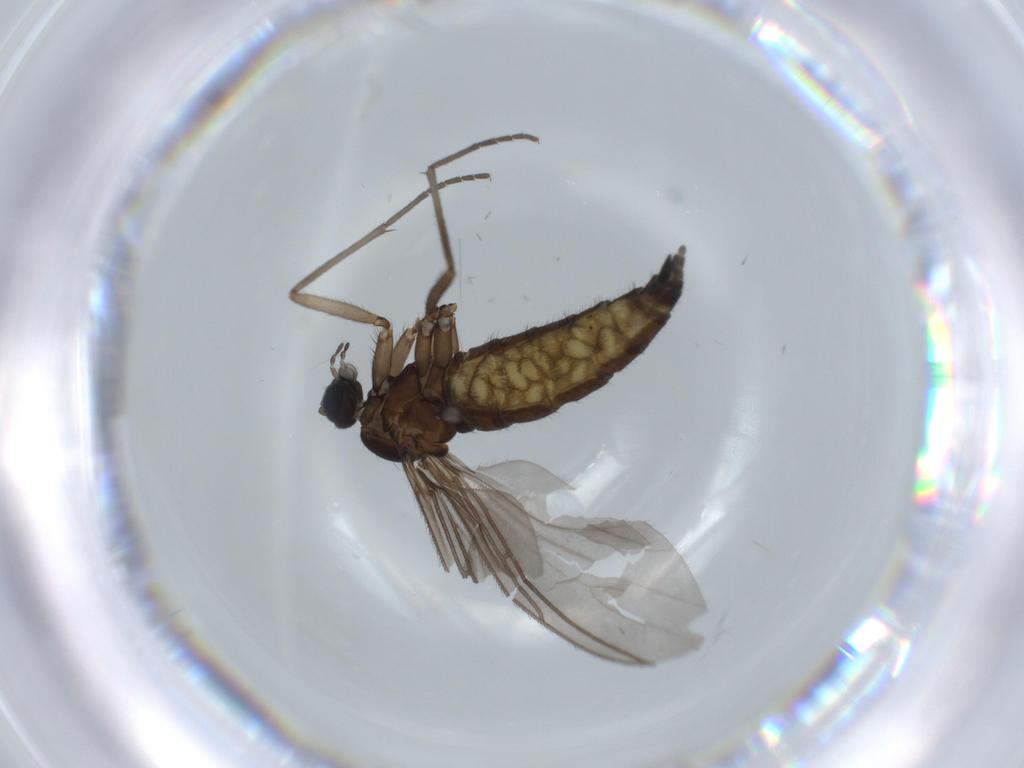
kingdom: Animalia
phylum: Arthropoda
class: Insecta
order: Diptera
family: Sciaridae
